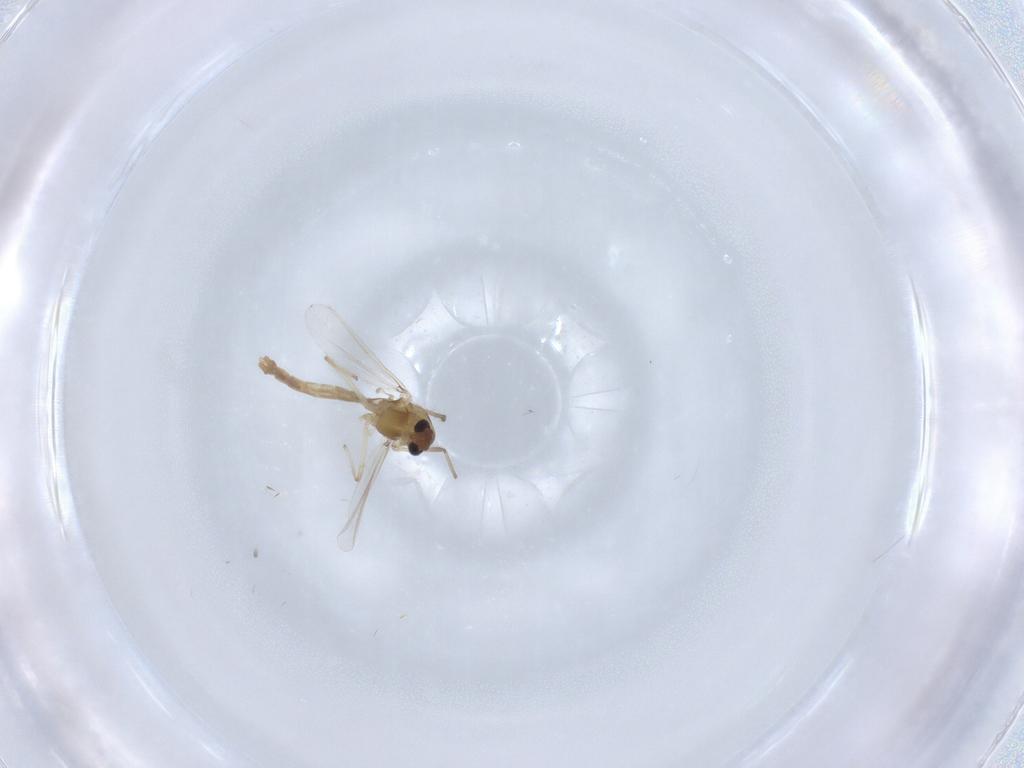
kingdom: Animalia
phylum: Arthropoda
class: Insecta
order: Diptera
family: Chironomidae
